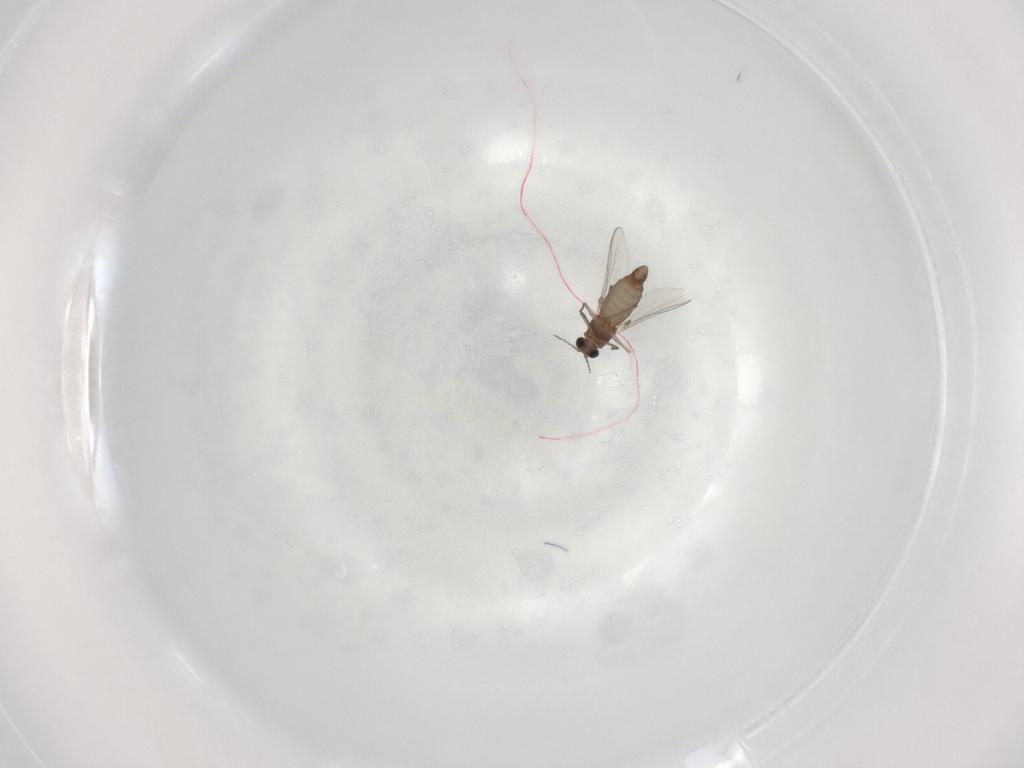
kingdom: Animalia
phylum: Arthropoda
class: Insecta
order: Diptera
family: Chironomidae
